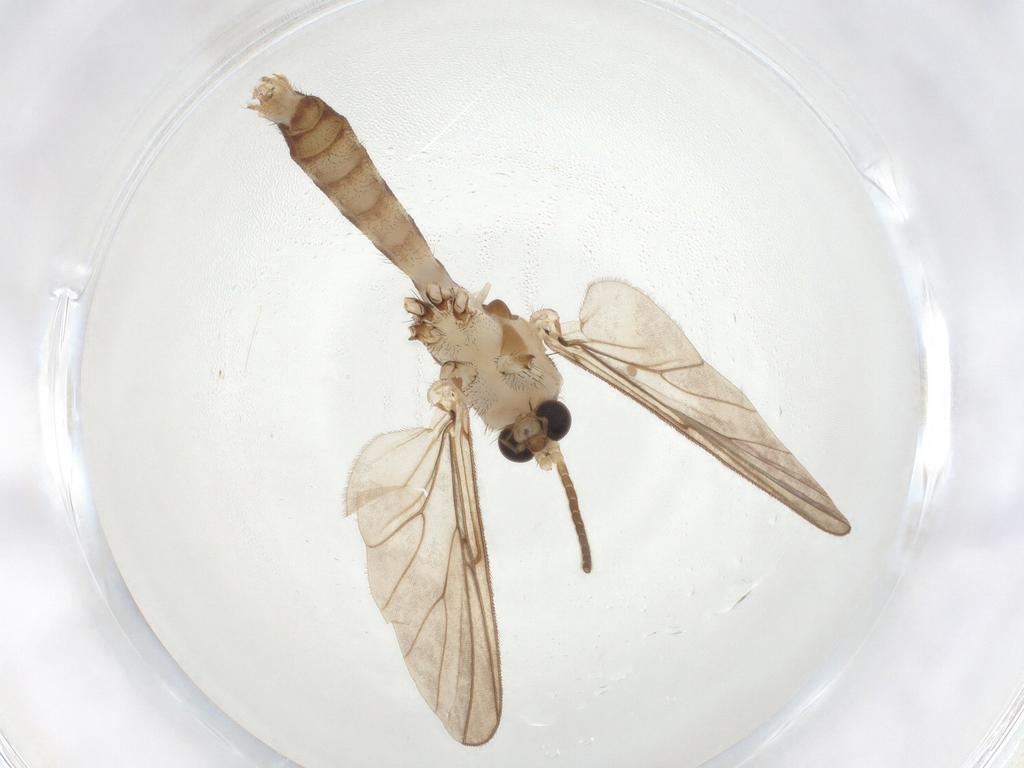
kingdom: Animalia
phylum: Arthropoda
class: Insecta
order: Diptera
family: Mycetophilidae
